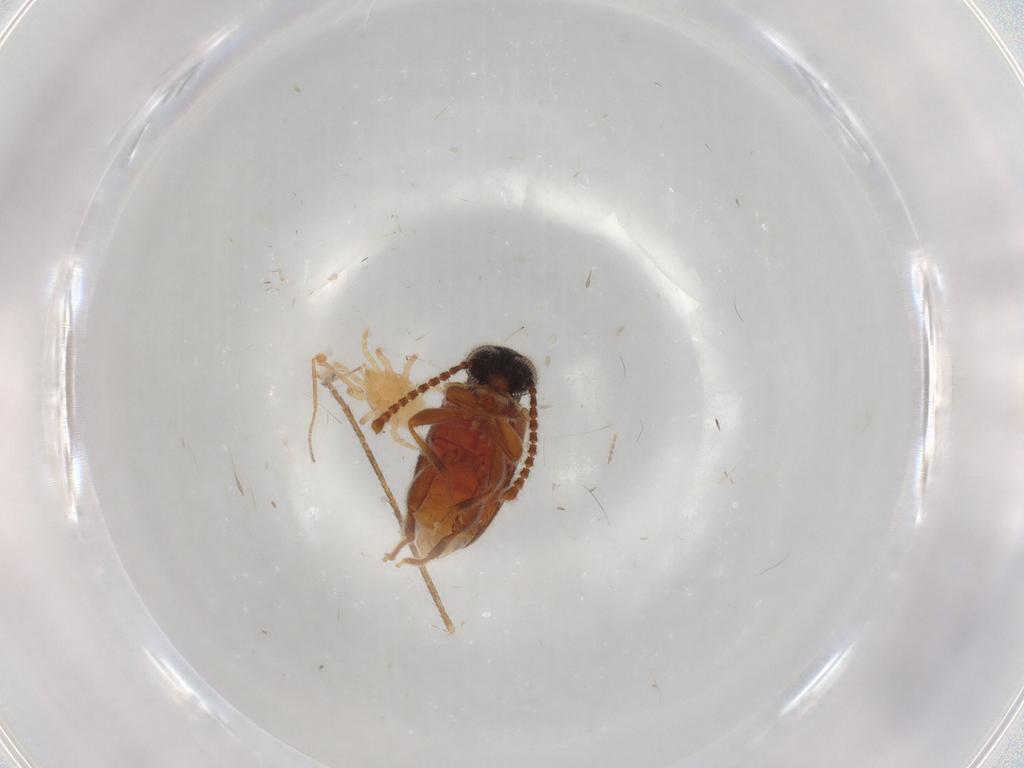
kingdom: Animalia
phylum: Arthropoda
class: Insecta
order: Diptera
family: Chironomidae
